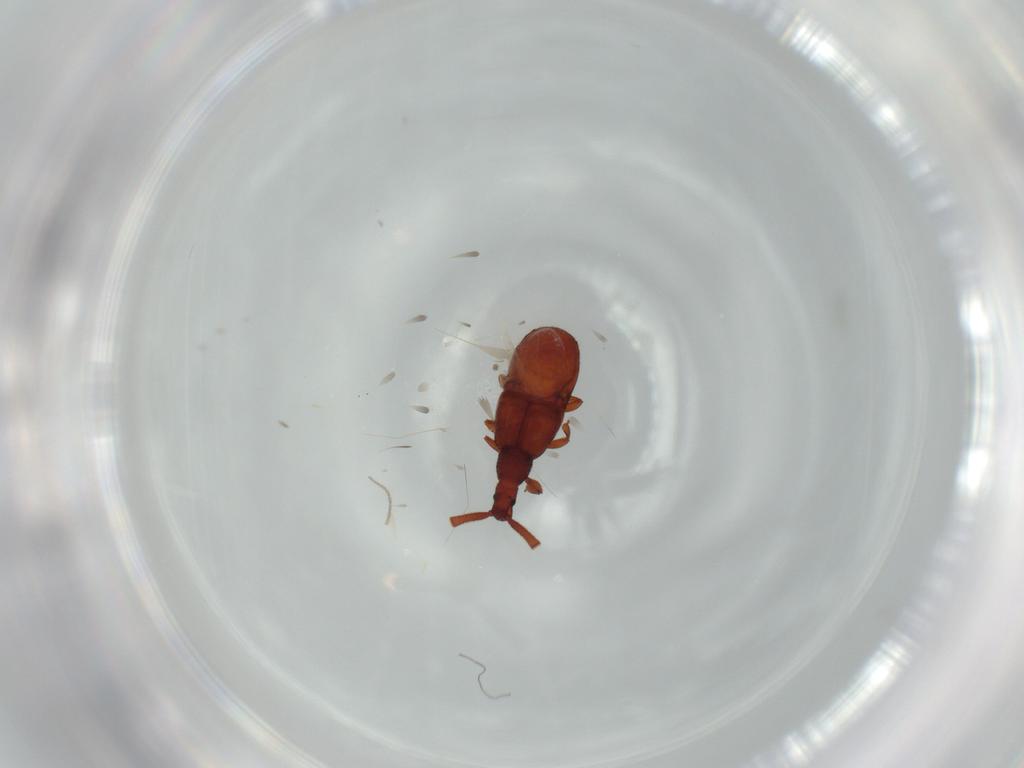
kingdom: Animalia
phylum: Arthropoda
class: Insecta
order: Coleoptera
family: Staphylinidae
